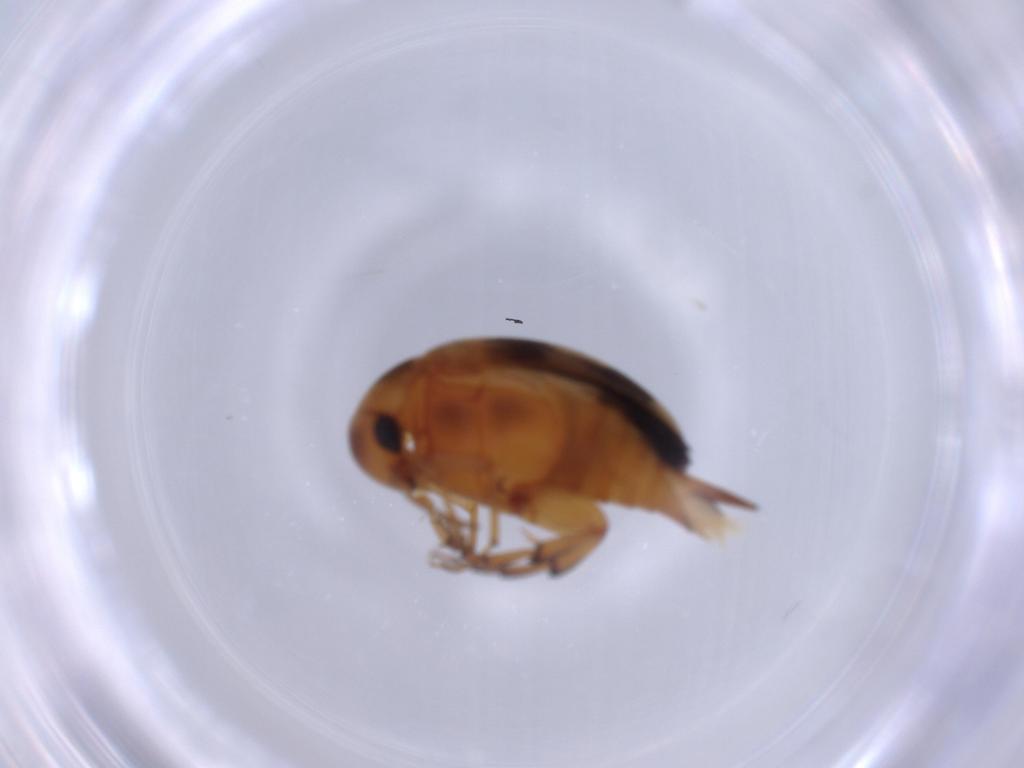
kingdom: Animalia
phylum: Arthropoda
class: Insecta
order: Coleoptera
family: Mordellidae
